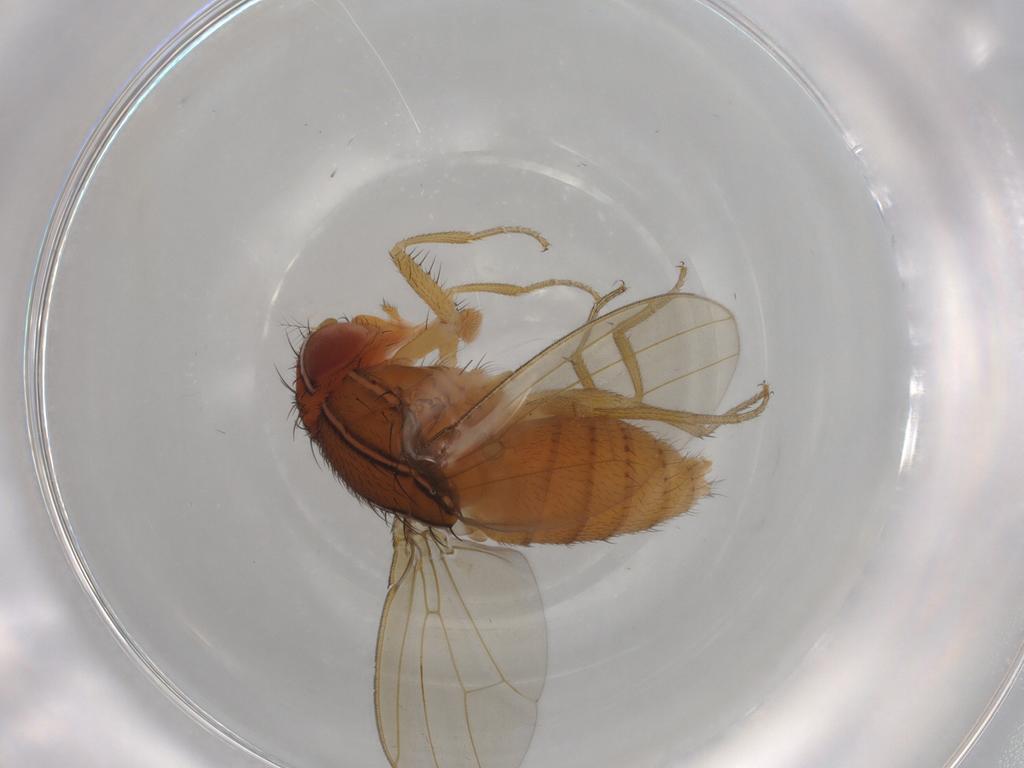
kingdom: Animalia
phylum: Arthropoda
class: Insecta
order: Diptera
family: Drosophilidae
